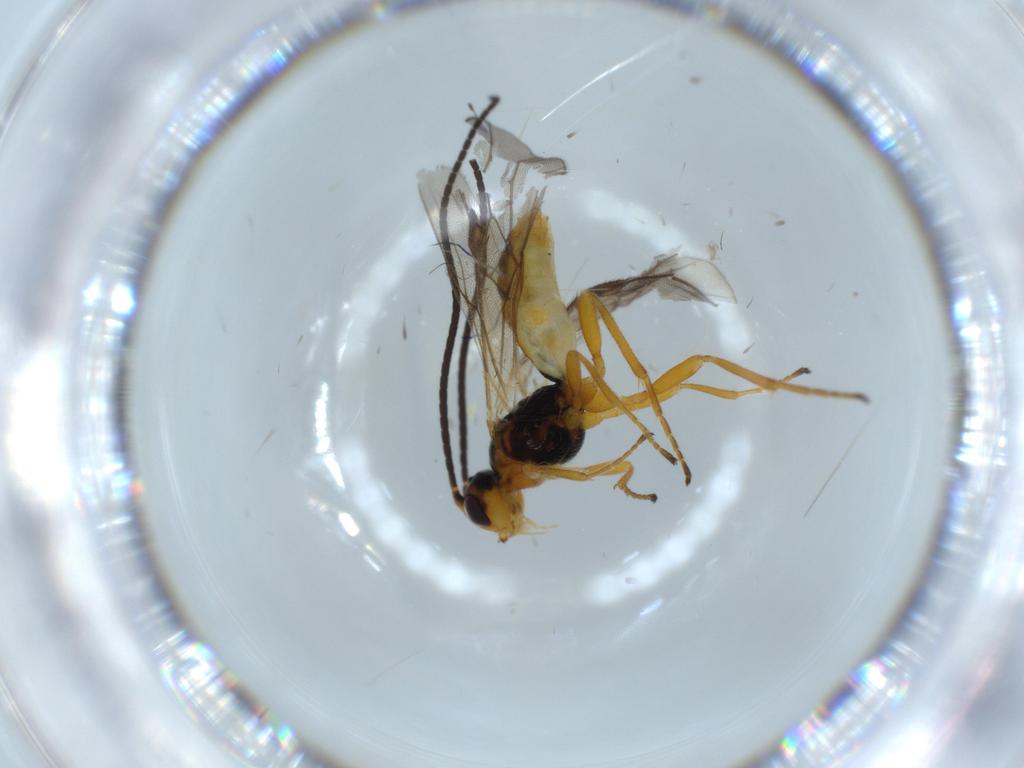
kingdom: Animalia
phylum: Arthropoda
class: Insecta
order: Hymenoptera
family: Braconidae
